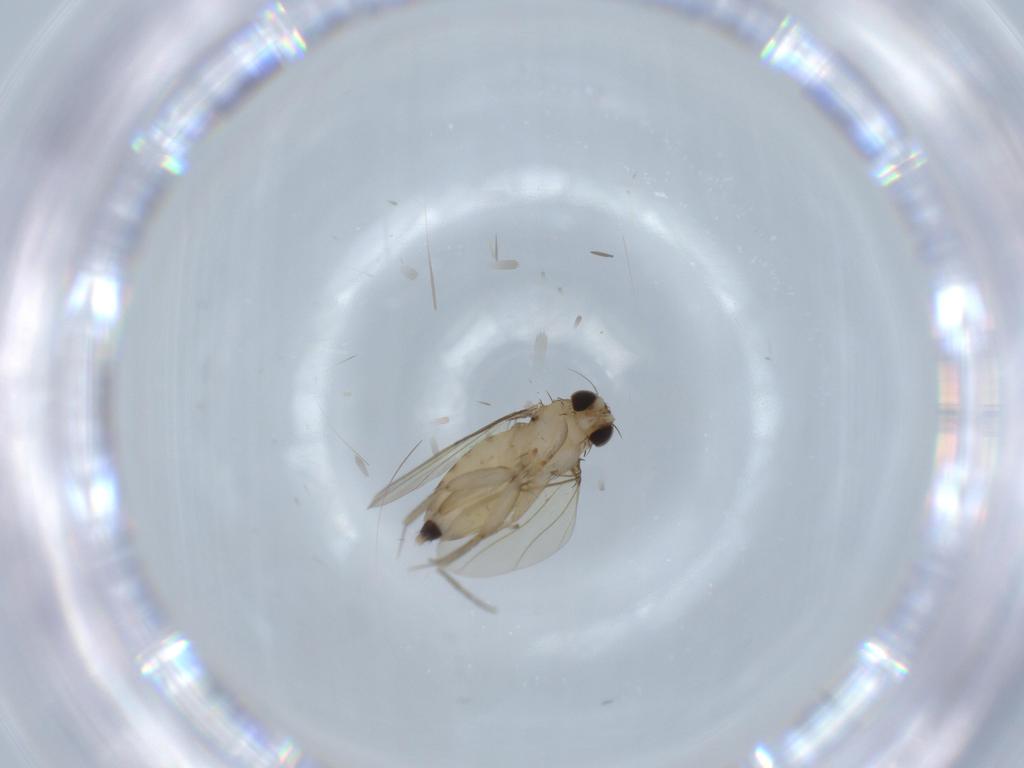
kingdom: Animalia
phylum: Arthropoda
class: Insecta
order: Diptera
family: Phoridae
